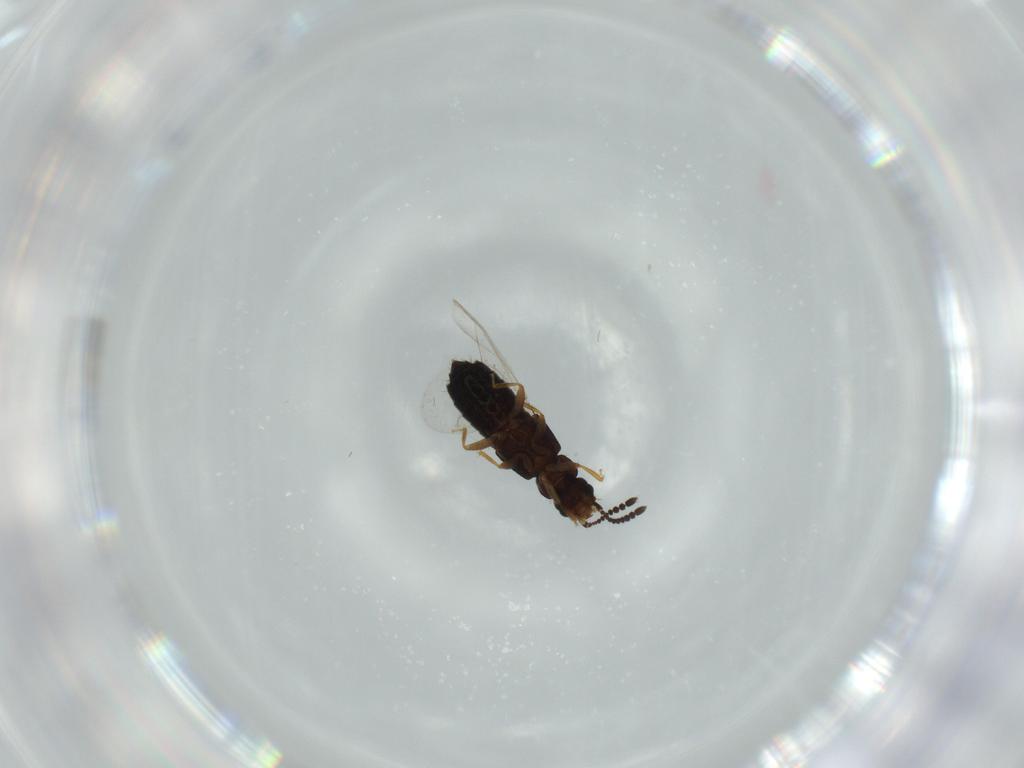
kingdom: Animalia
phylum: Arthropoda
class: Insecta
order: Coleoptera
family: Staphylinidae
